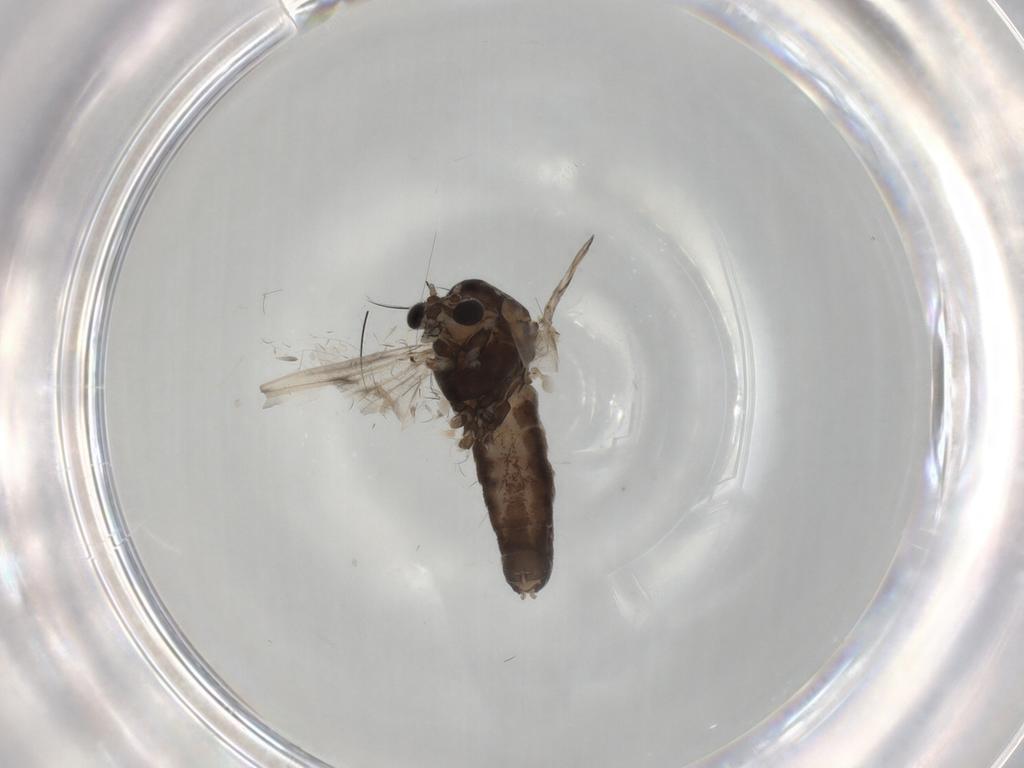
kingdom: Animalia
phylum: Arthropoda
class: Insecta
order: Diptera
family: Chironomidae
